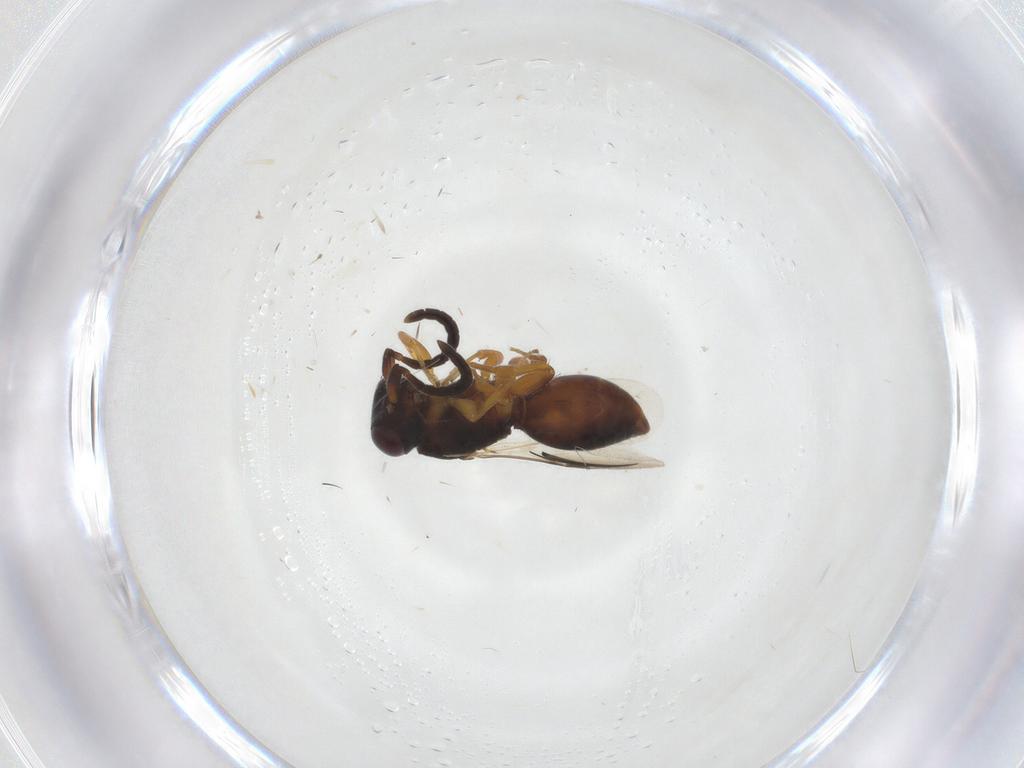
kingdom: Animalia
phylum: Arthropoda
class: Insecta
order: Hymenoptera
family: Megaspilidae
